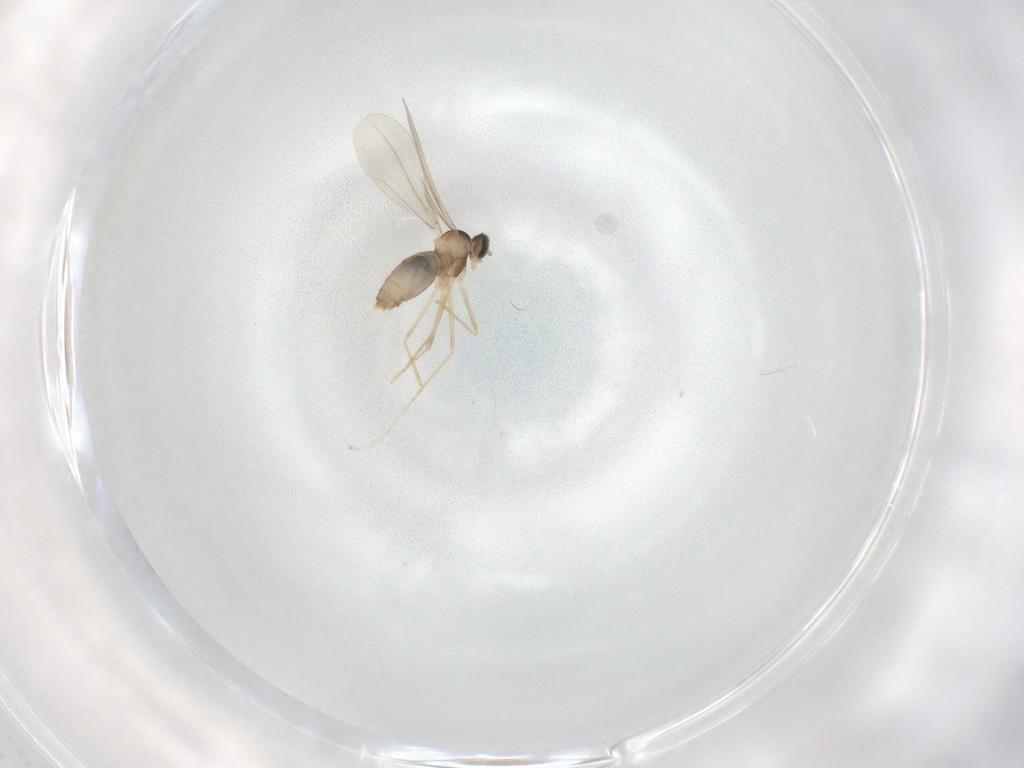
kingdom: Animalia
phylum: Arthropoda
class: Insecta
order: Diptera
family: Cecidomyiidae
